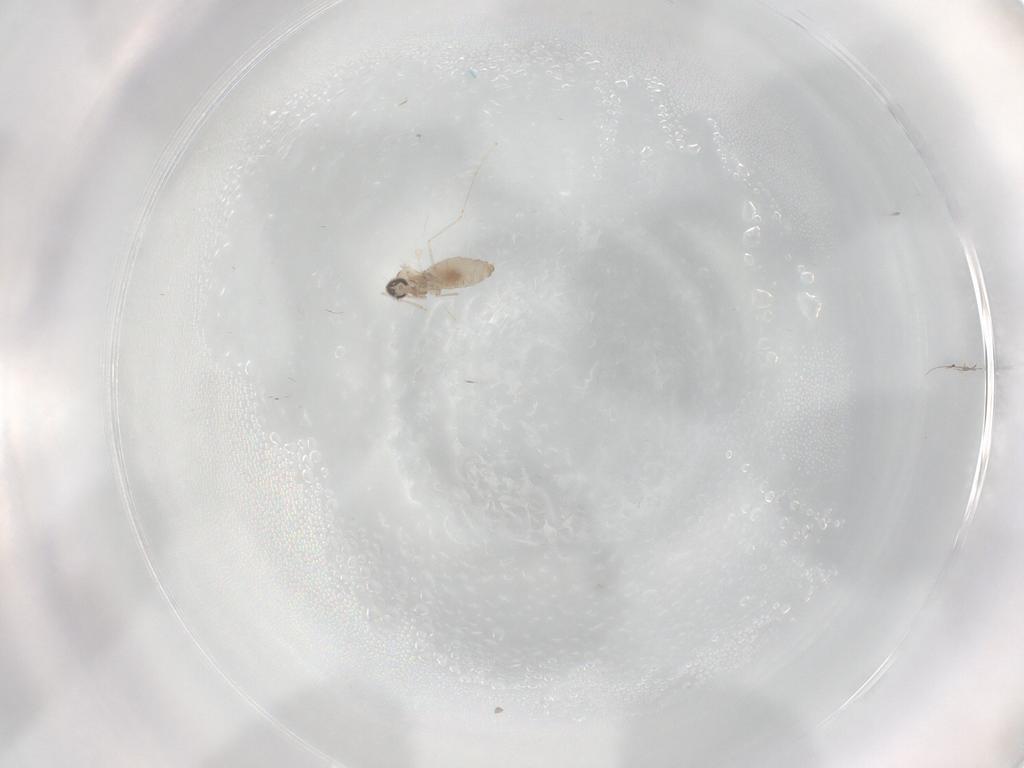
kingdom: Animalia
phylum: Arthropoda
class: Insecta
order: Diptera
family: Cecidomyiidae
